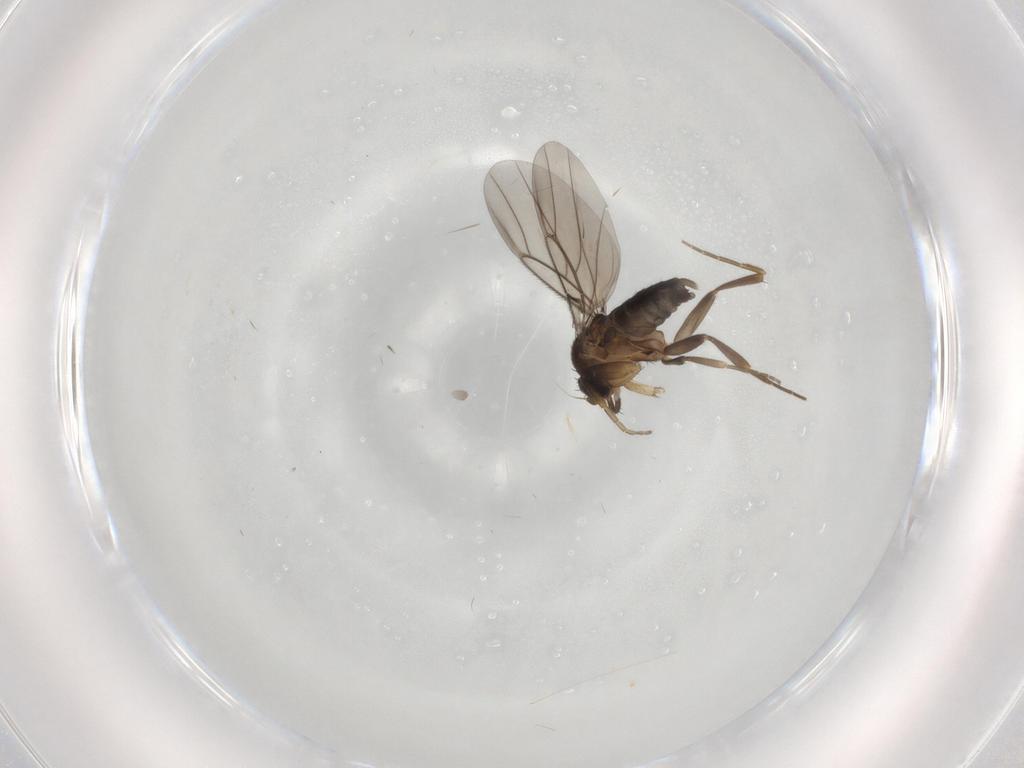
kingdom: Animalia
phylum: Arthropoda
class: Insecta
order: Diptera
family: Phoridae
